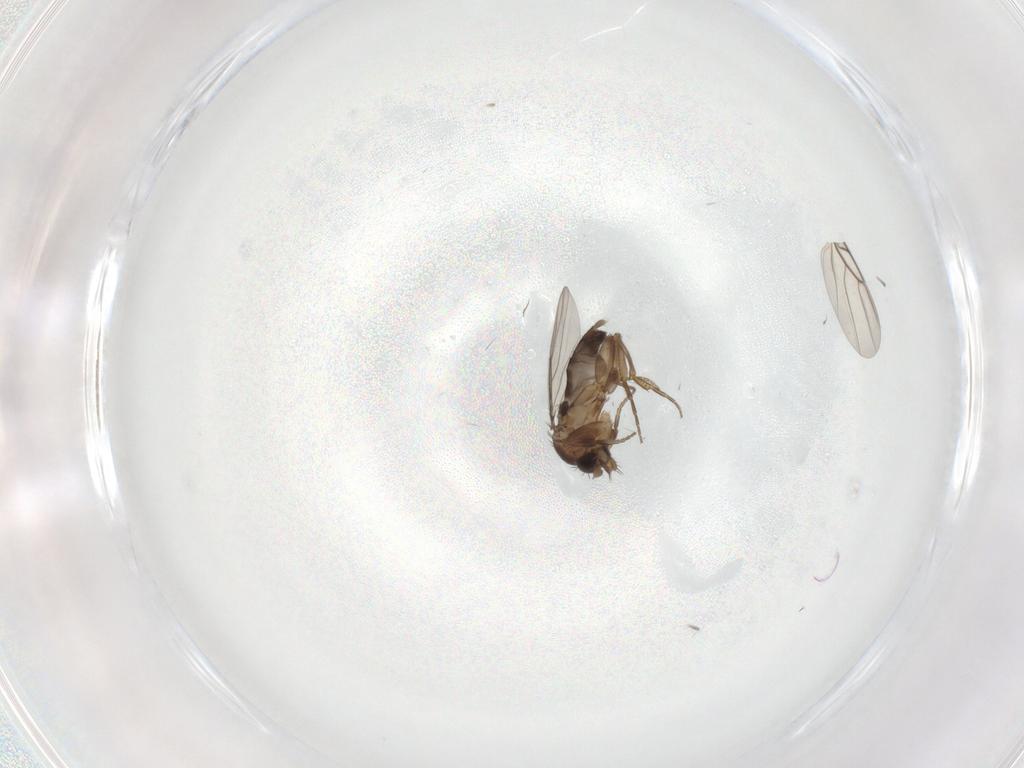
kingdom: Animalia
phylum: Arthropoda
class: Insecta
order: Diptera
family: Phoridae
